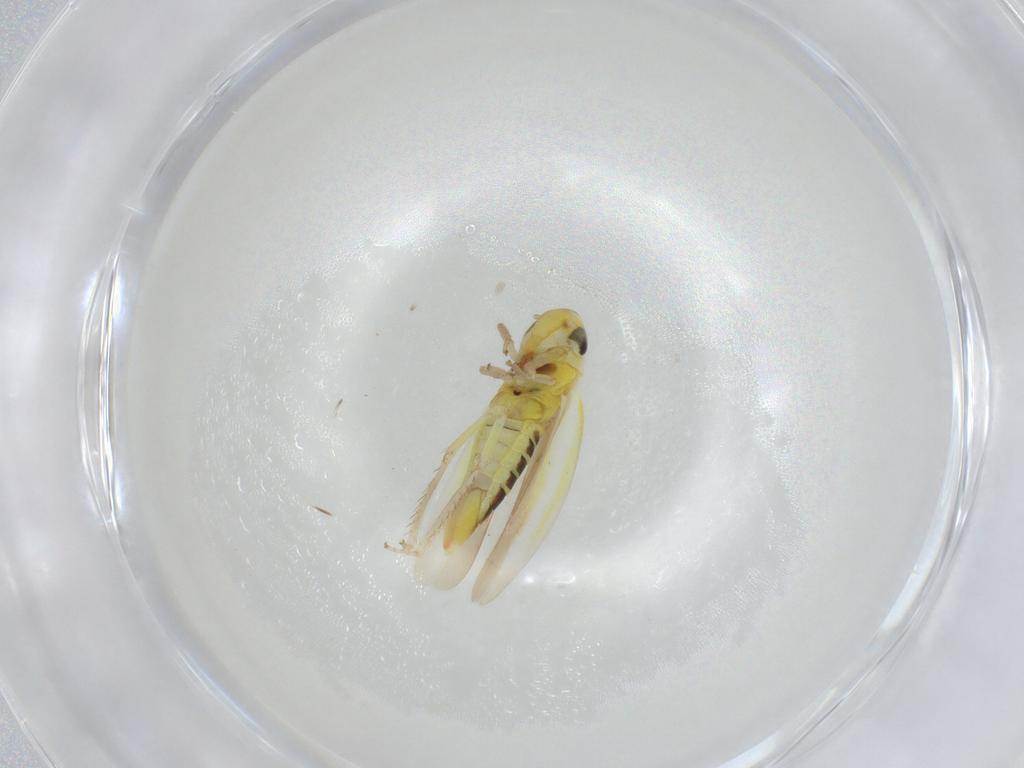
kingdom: Animalia
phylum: Arthropoda
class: Insecta
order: Hemiptera
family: Cicadellidae
